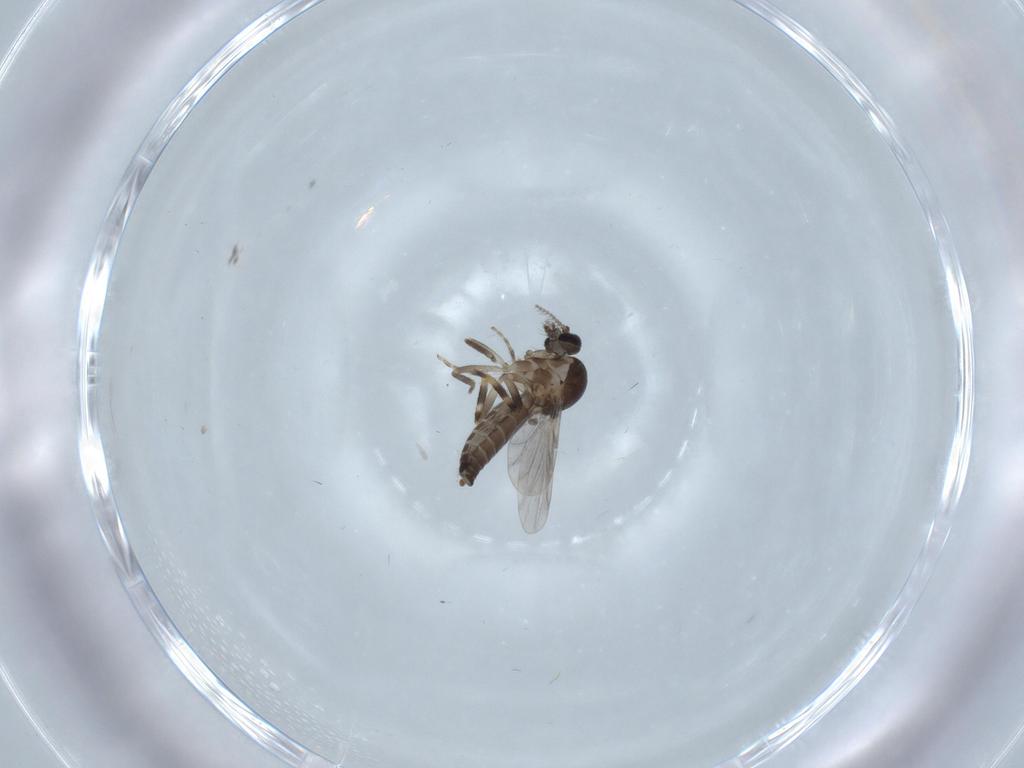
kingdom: Animalia
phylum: Arthropoda
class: Insecta
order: Diptera
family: Ceratopogonidae
